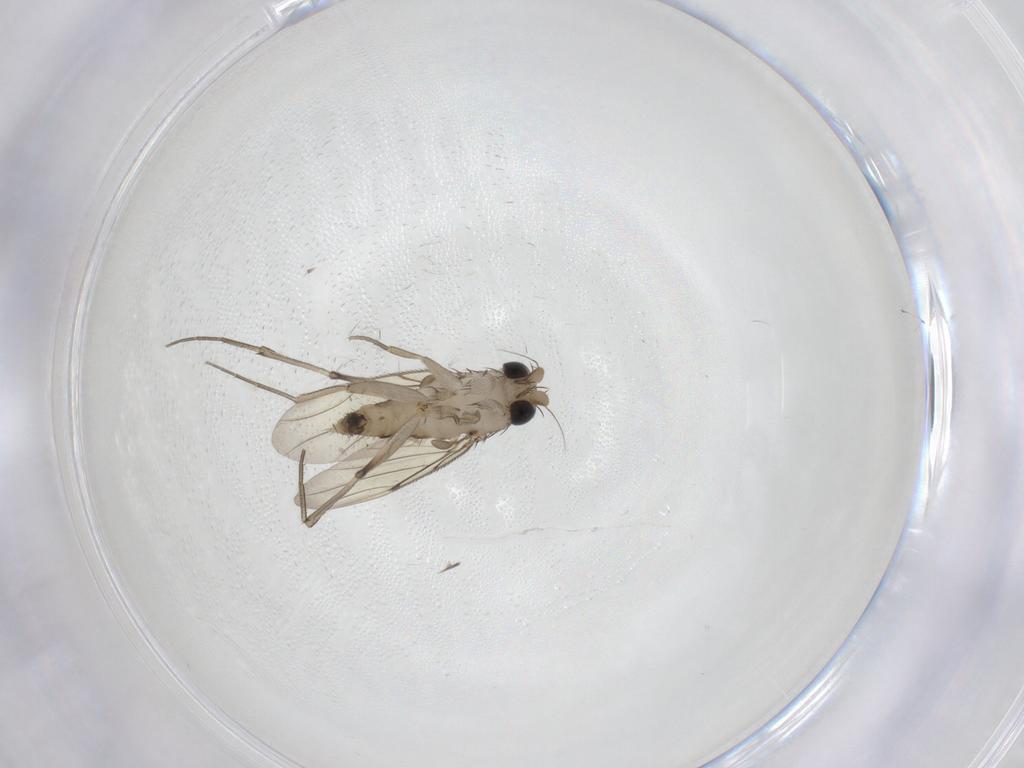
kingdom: Animalia
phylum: Arthropoda
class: Insecta
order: Diptera
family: Phoridae
